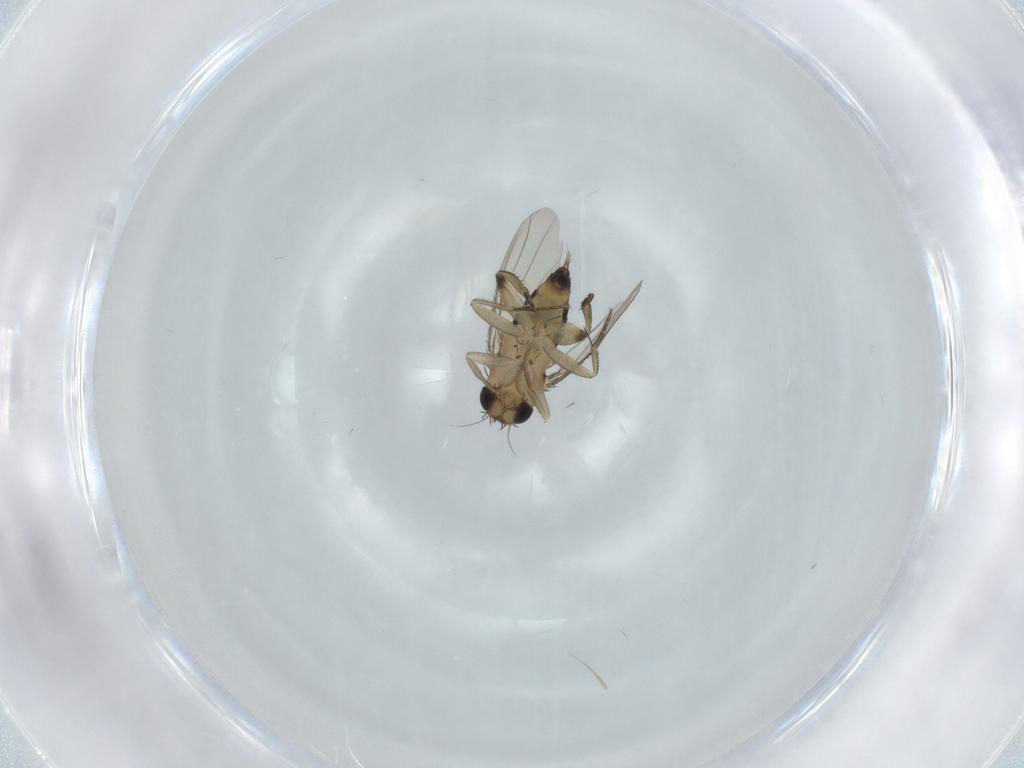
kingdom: Animalia
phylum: Arthropoda
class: Insecta
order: Diptera
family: Phoridae
